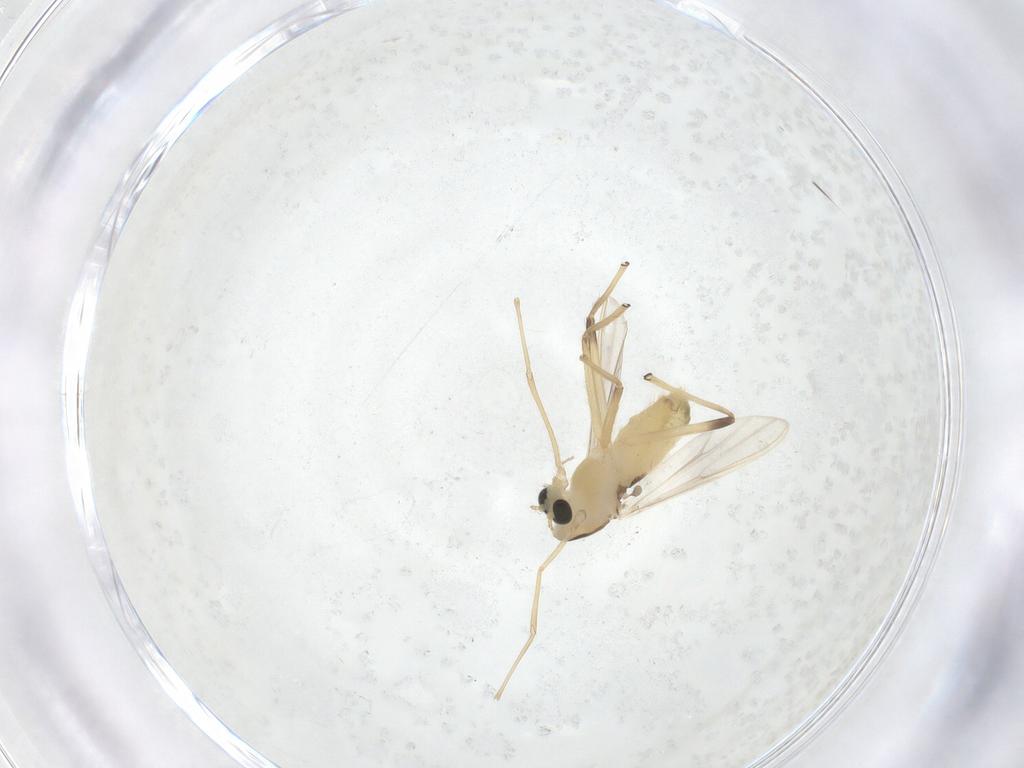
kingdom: Animalia
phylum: Arthropoda
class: Insecta
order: Diptera
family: Chironomidae
